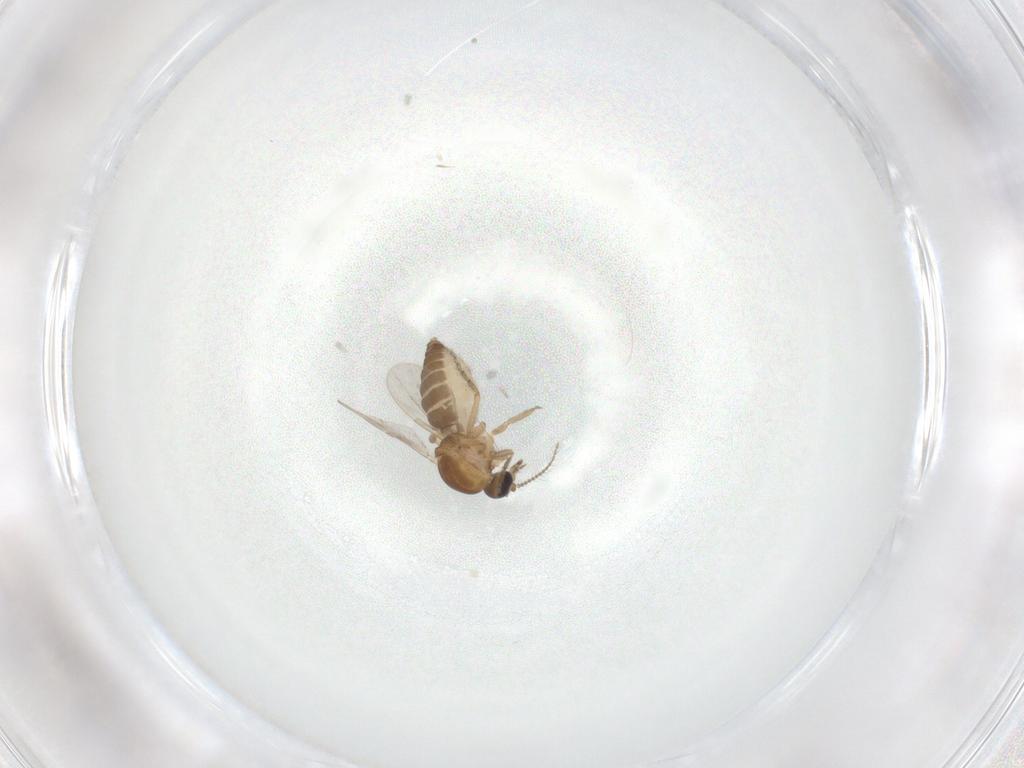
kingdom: Animalia
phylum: Arthropoda
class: Insecta
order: Diptera
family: Ceratopogonidae
